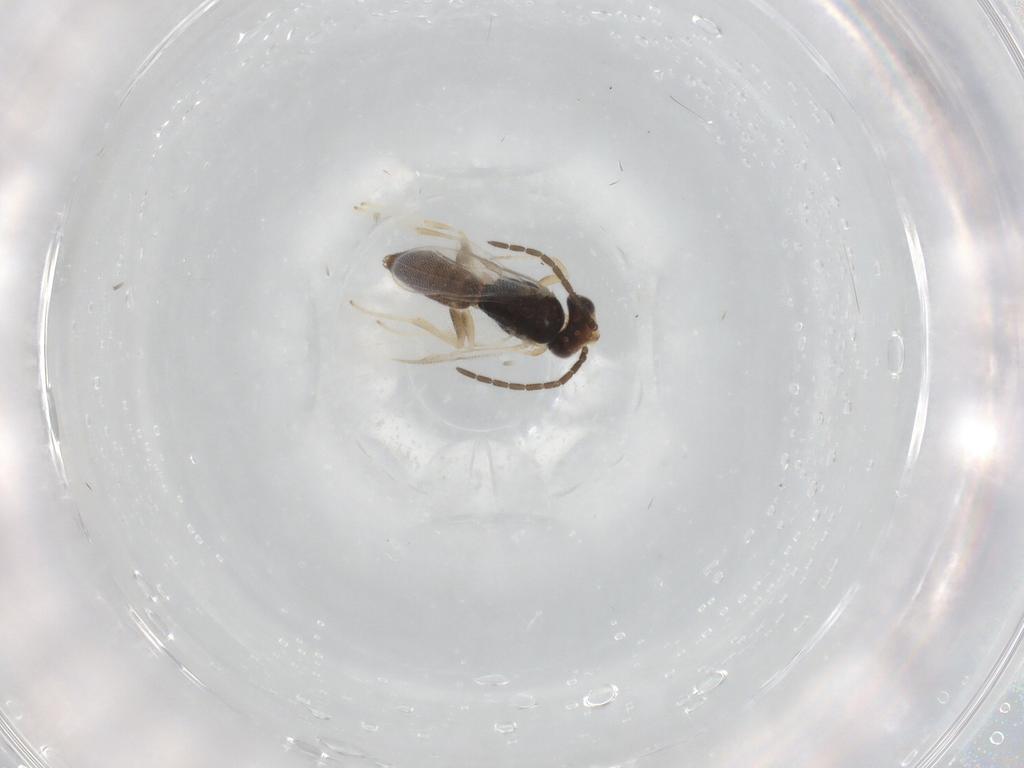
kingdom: Animalia
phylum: Arthropoda
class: Insecta
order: Hymenoptera
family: Dryinidae
